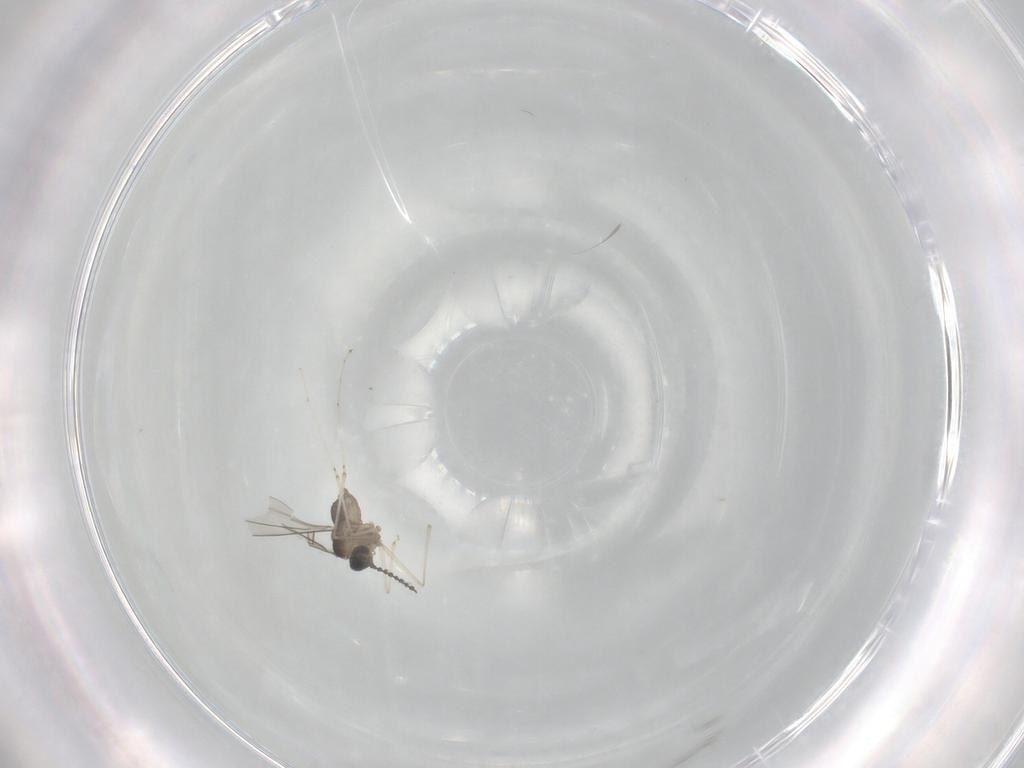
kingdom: Animalia
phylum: Arthropoda
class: Insecta
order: Diptera
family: Cecidomyiidae
